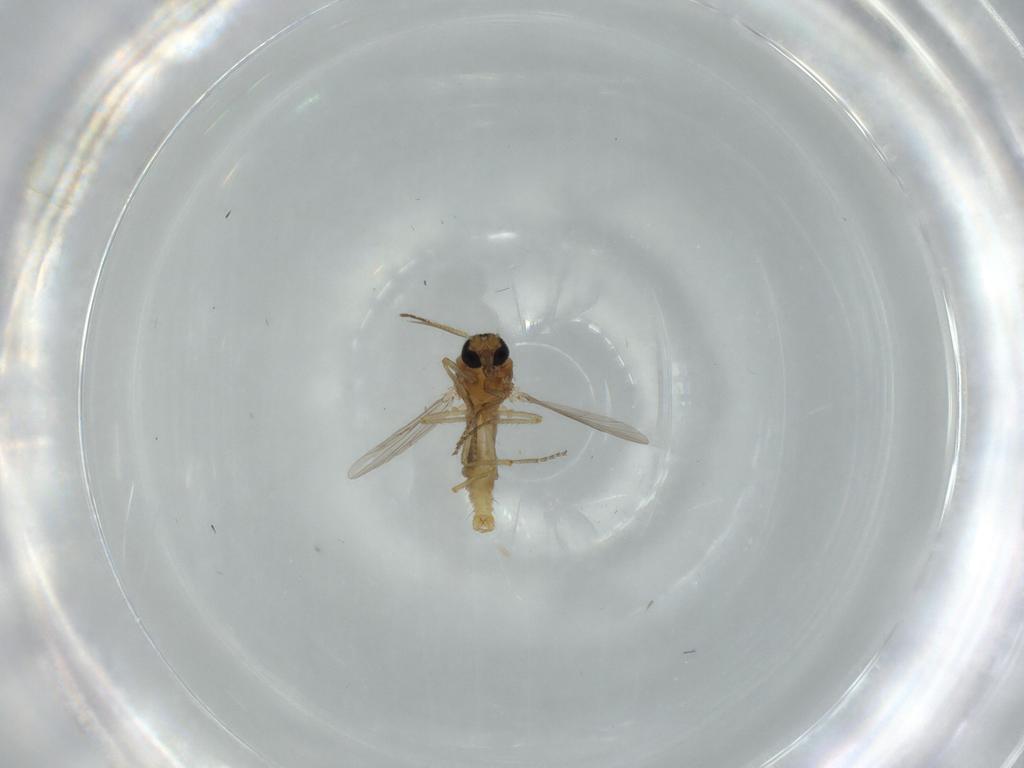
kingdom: Animalia
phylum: Arthropoda
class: Insecta
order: Diptera
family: Ceratopogonidae
